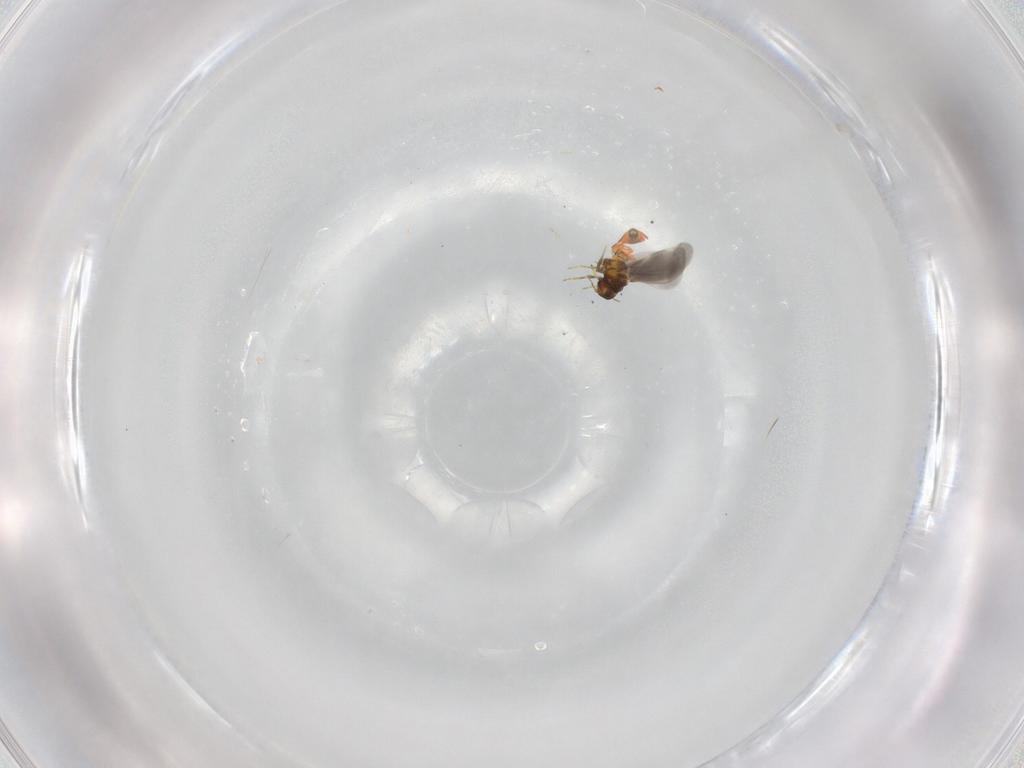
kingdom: Animalia
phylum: Arthropoda
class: Insecta
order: Hemiptera
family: Aleyrodidae
